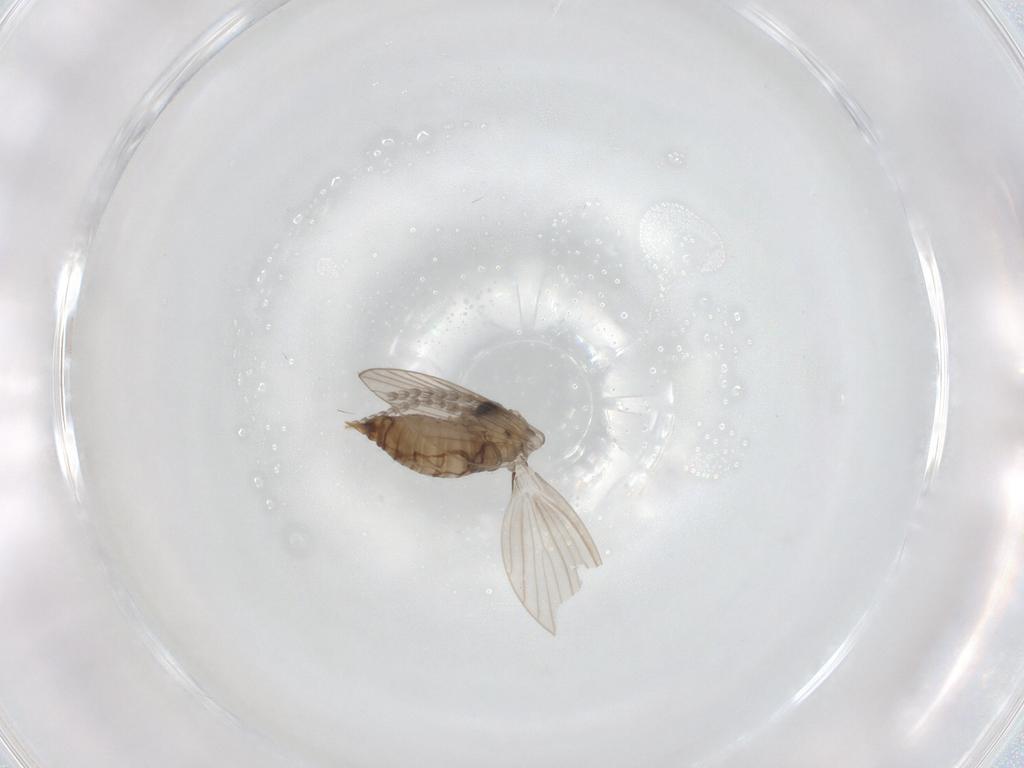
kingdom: Animalia
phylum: Arthropoda
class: Insecta
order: Diptera
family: Psychodidae
